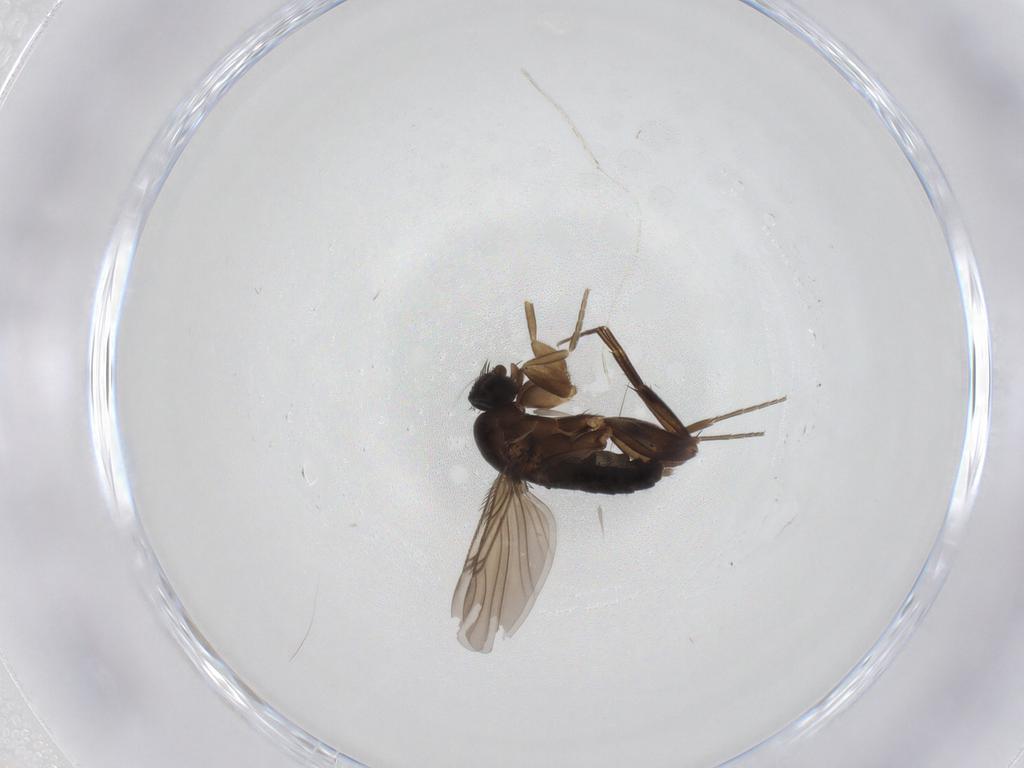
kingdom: Animalia
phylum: Arthropoda
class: Insecta
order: Diptera
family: Phoridae
